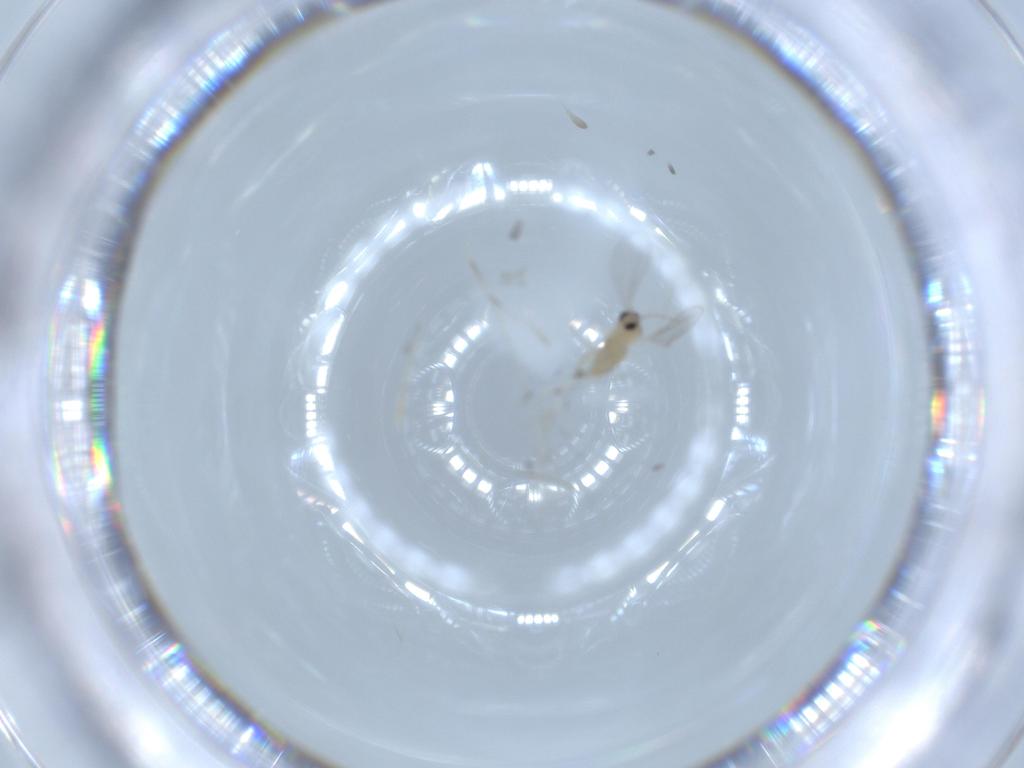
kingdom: Animalia
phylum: Arthropoda
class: Insecta
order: Diptera
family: Cecidomyiidae
